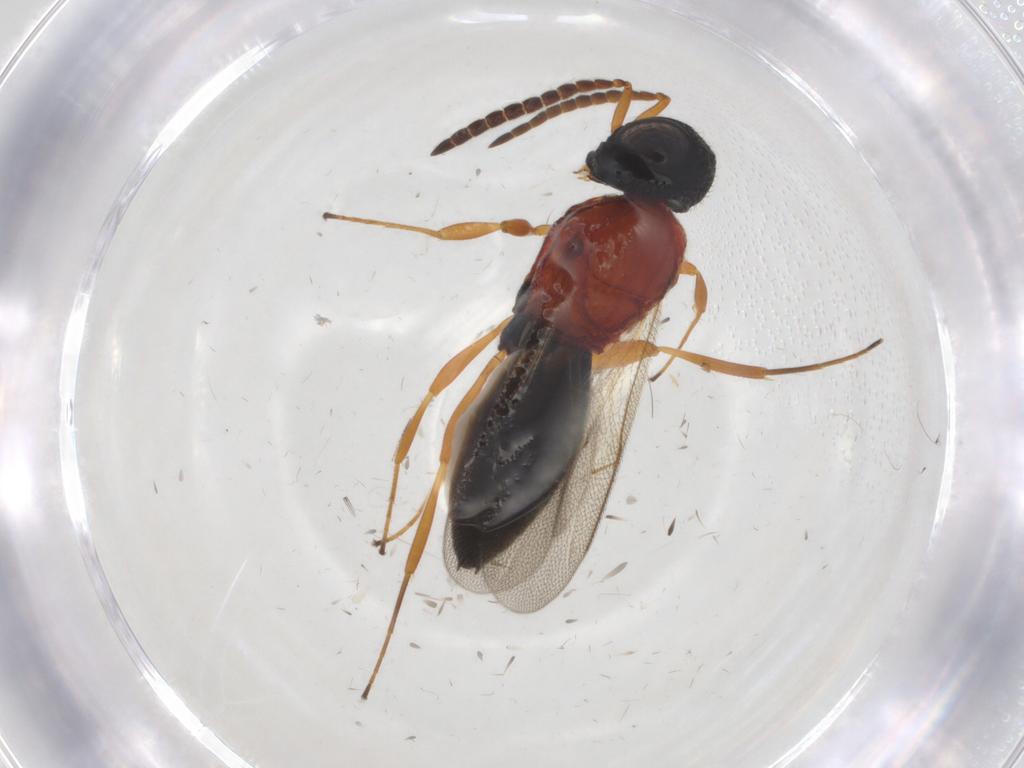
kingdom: Animalia
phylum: Arthropoda
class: Insecta
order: Hymenoptera
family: Scelionidae
